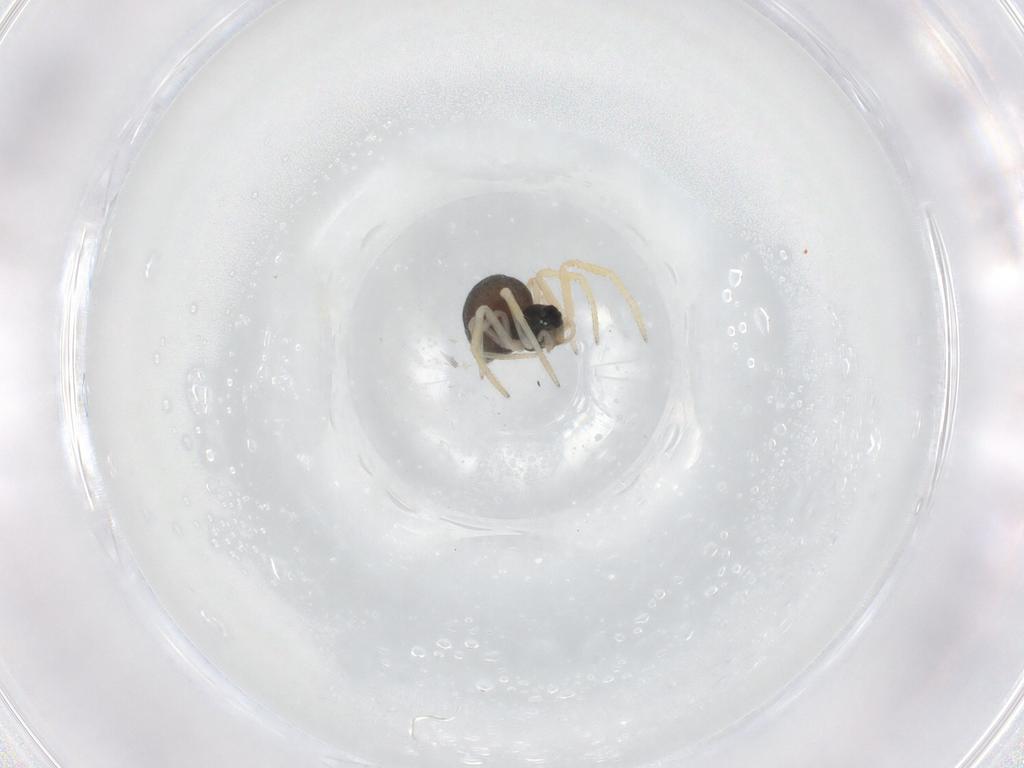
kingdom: Animalia
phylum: Arthropoda
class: Arachnida
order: Araneae
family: Linyphiidae
